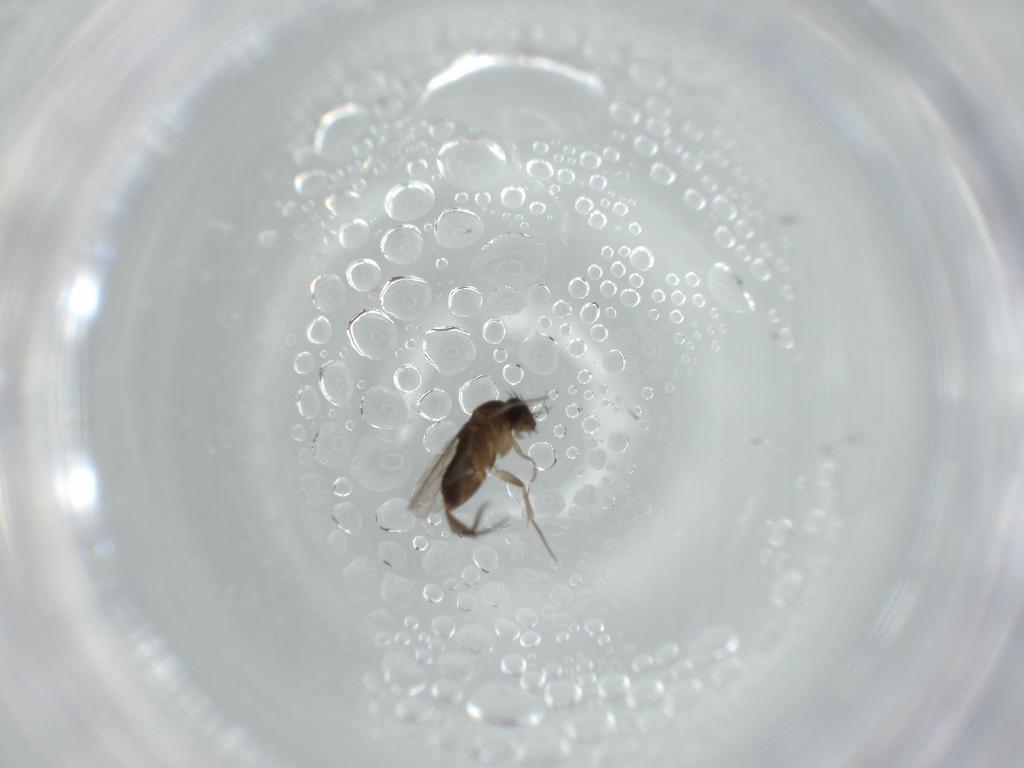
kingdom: Animalia
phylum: Arthropoda
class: Insecta
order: Diptera
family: Phoridae
